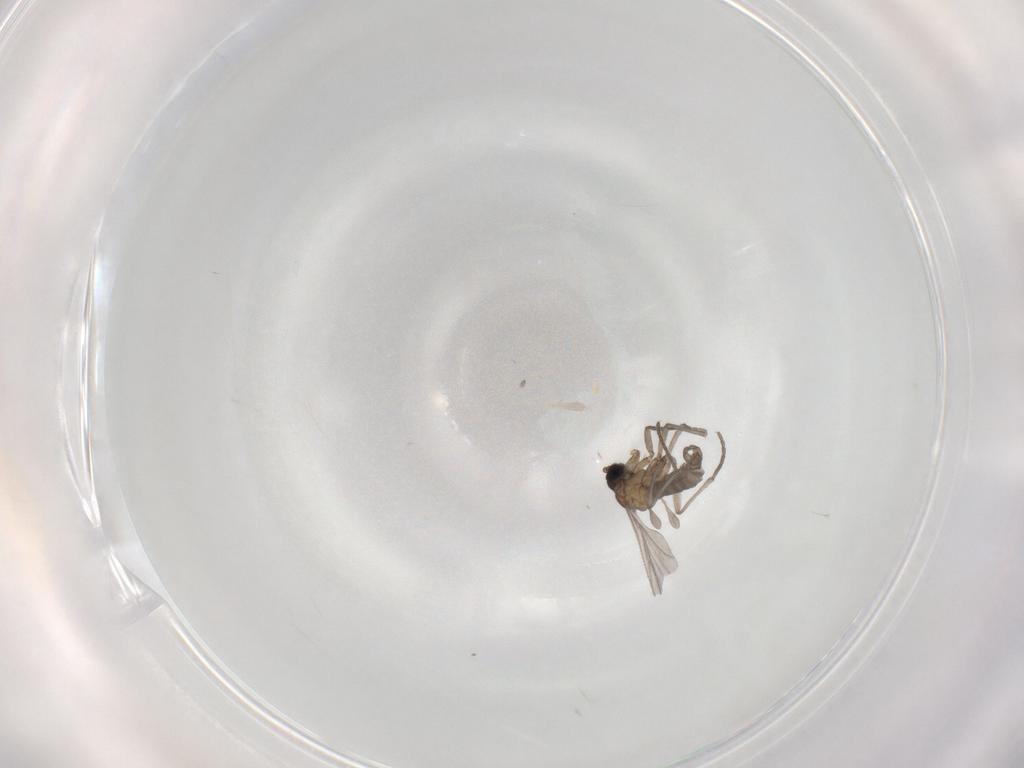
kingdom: Animalia
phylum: Arthropoda
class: Insecta
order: Diptera
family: Sciaridae
